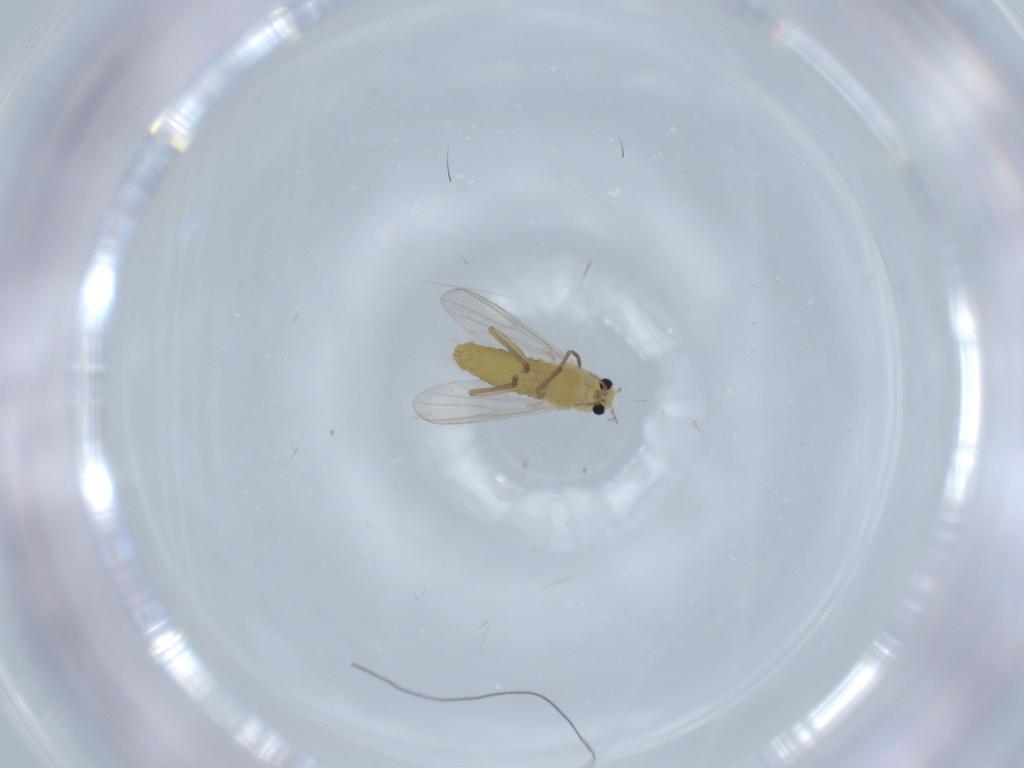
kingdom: Animalia
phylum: Arthropoda
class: Insecta
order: Diptera
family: Chironomidae
